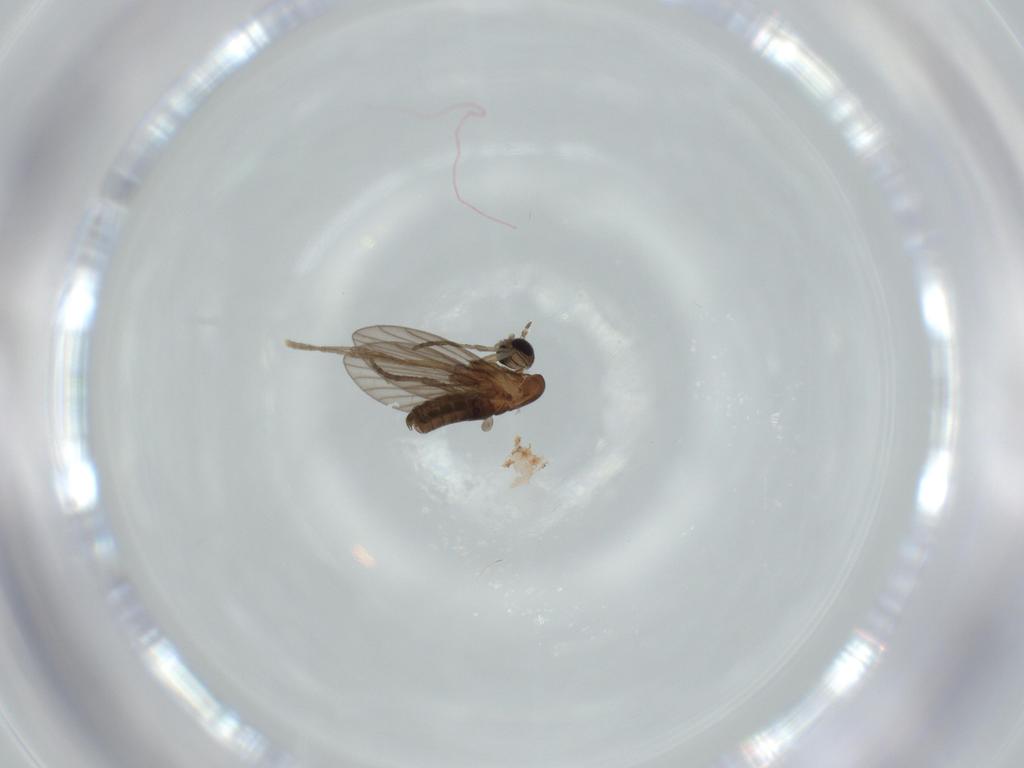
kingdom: Animalia
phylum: Arthropoda
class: Insecta
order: Diptera
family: Psychodidae
